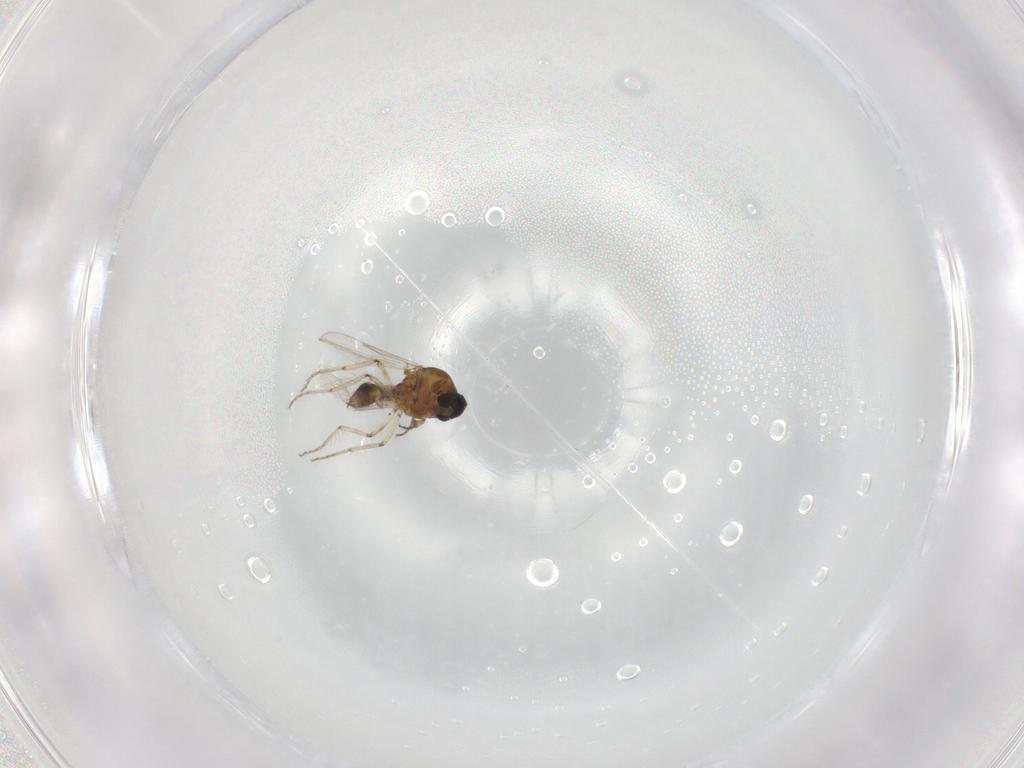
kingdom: Animalia
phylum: Arthropoda
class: Insecta
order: Diptera
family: Ceratopogonidae
